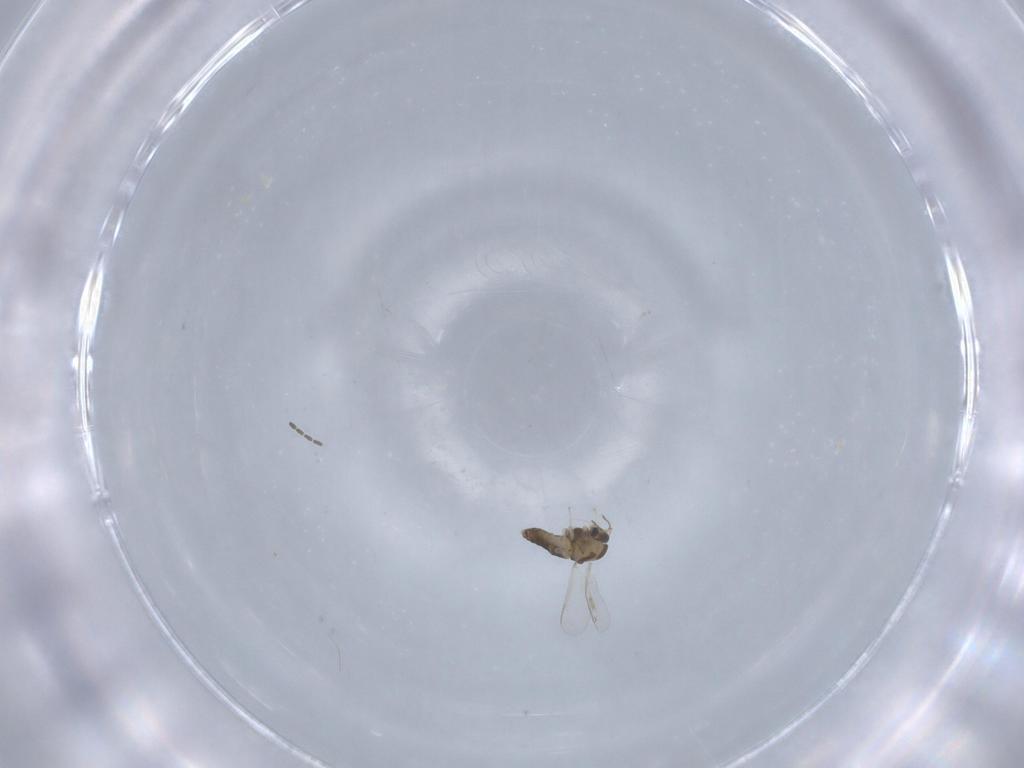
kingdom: Animalia
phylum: Arthropoda
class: Insecta
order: Diptera
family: Chironomidae
